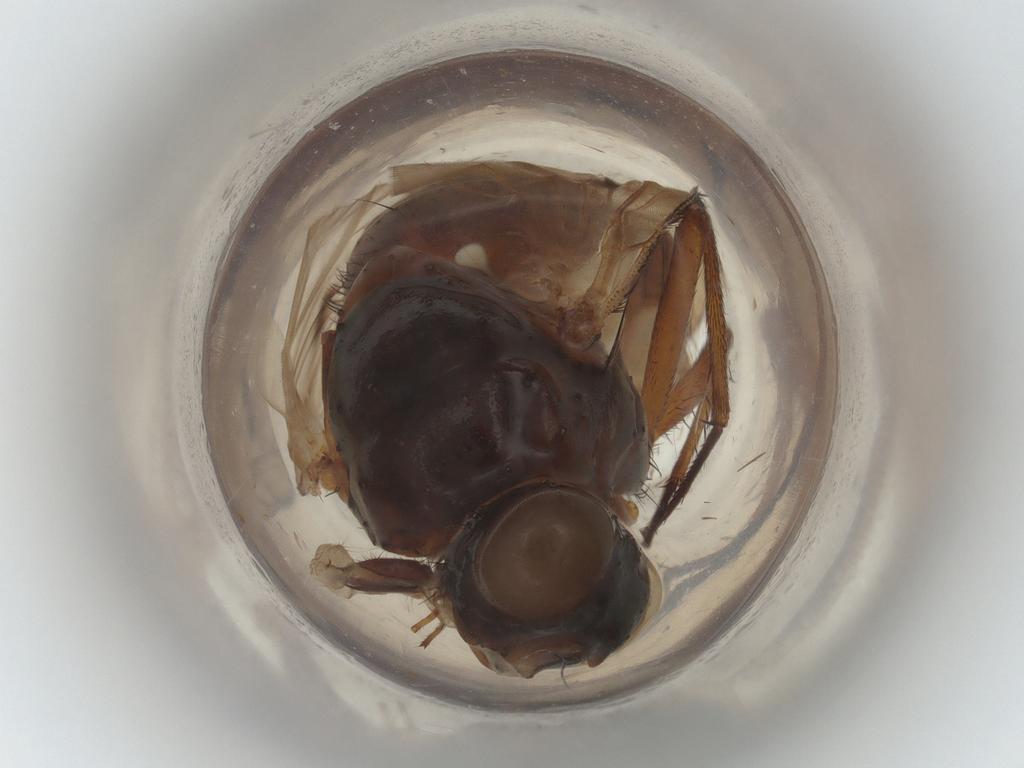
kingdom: Animalia
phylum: Arthropoda
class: Insecta
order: Diptera
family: Anthomyiidae
